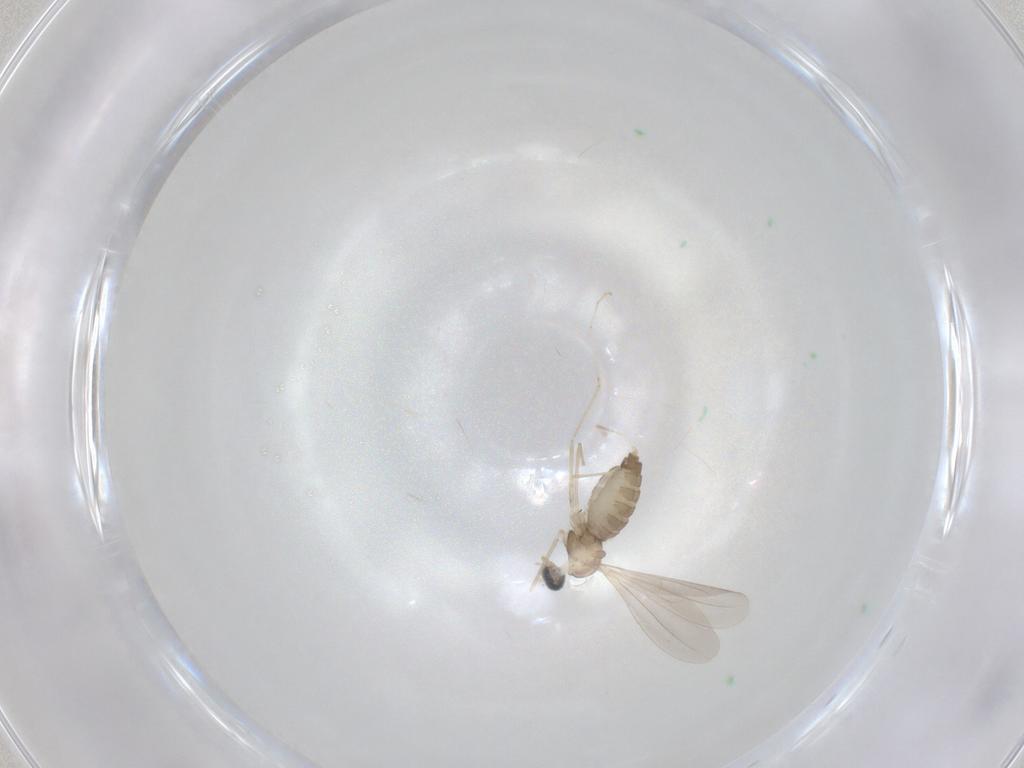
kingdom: Animalia
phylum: Arthropoda
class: Insecta
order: Diptera
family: Cecidomyiidae
